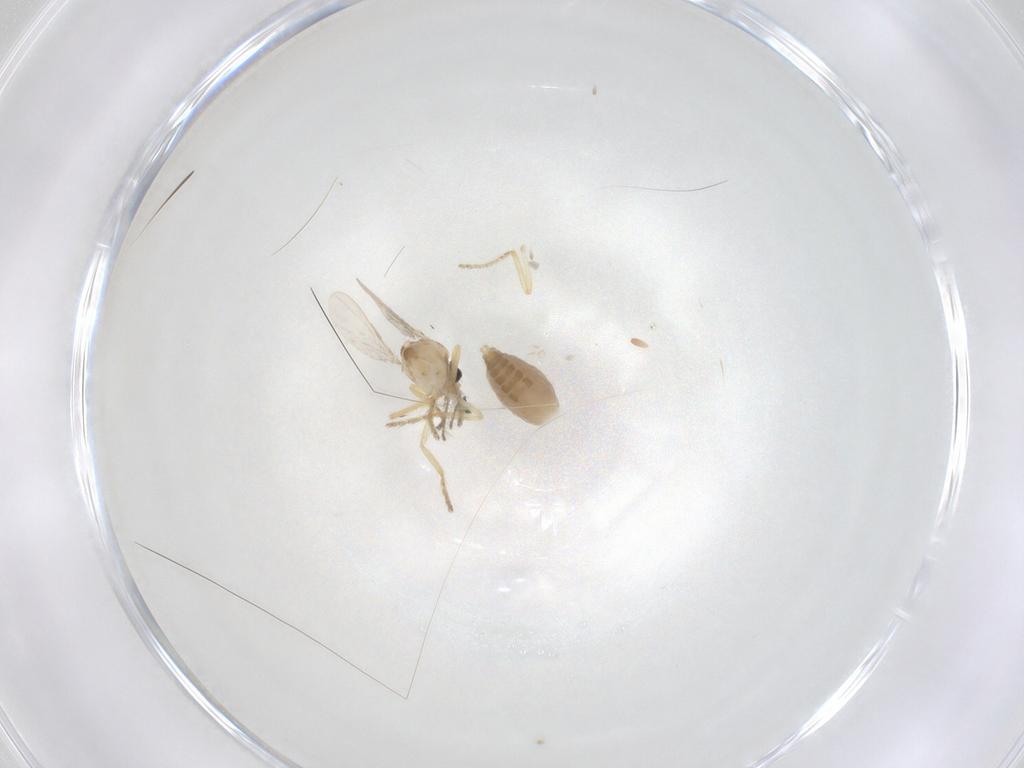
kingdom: Animalia
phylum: Arthropoda
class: Insecta
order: Diptera
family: Ceratopogonidae
